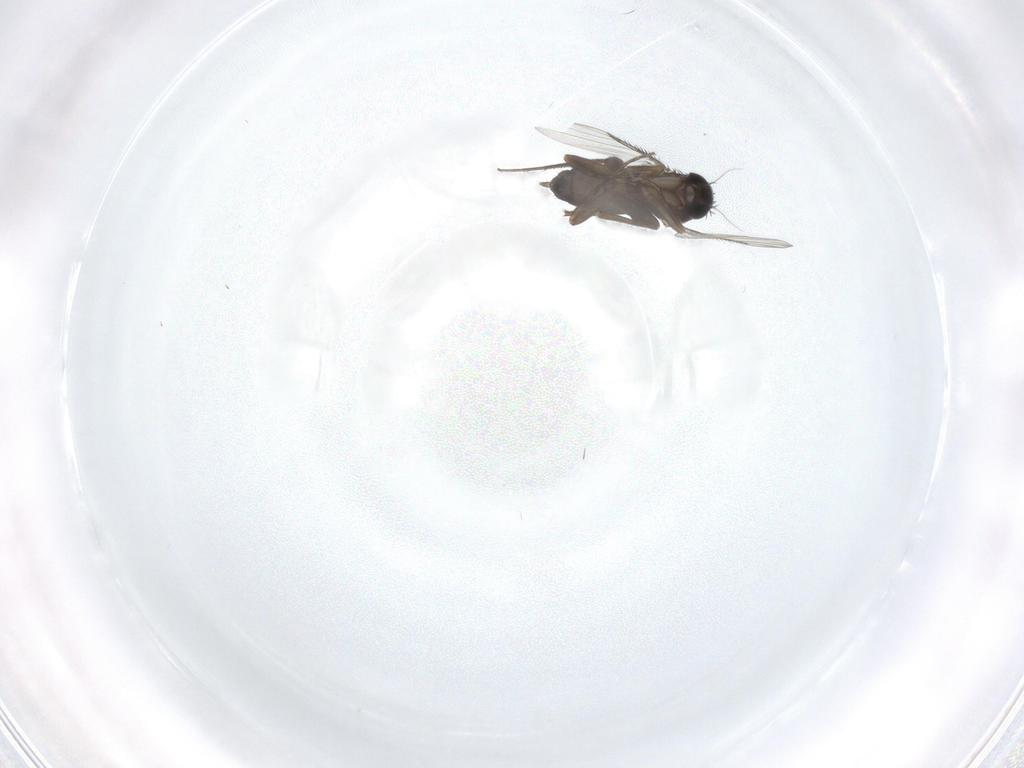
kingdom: Animalia
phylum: Arthropoda
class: Insecta
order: Diptera
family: Phoridae
